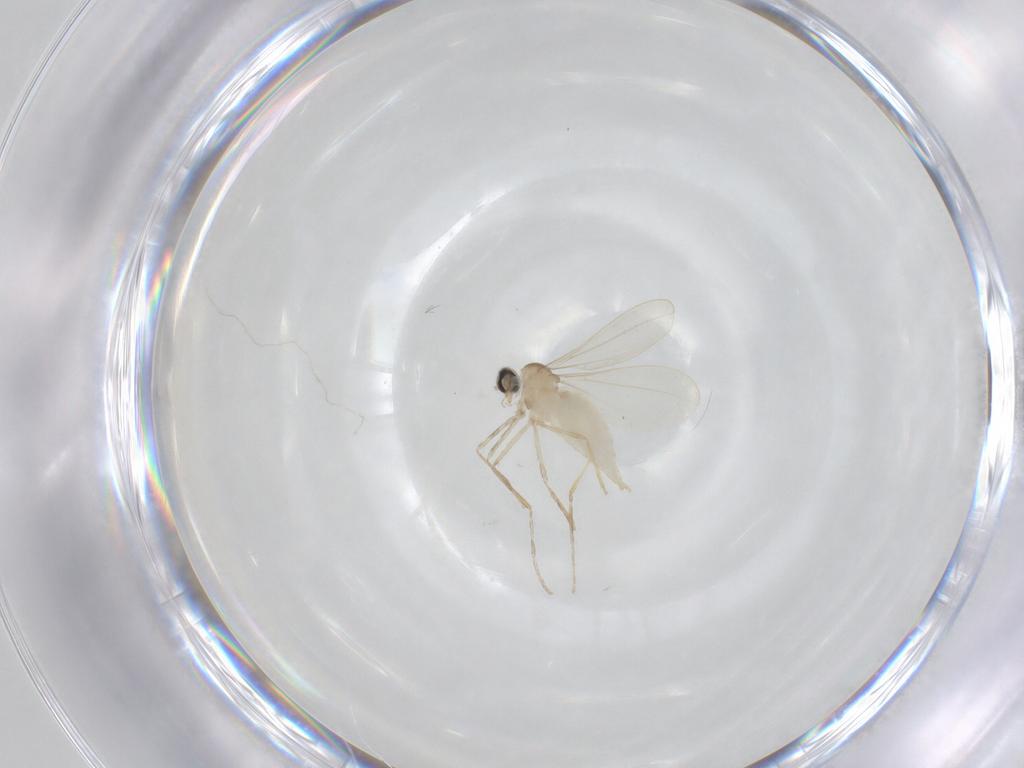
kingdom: Animalia
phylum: Arthropoda
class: Insecta
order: Diptera
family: Cecidomyiidae
